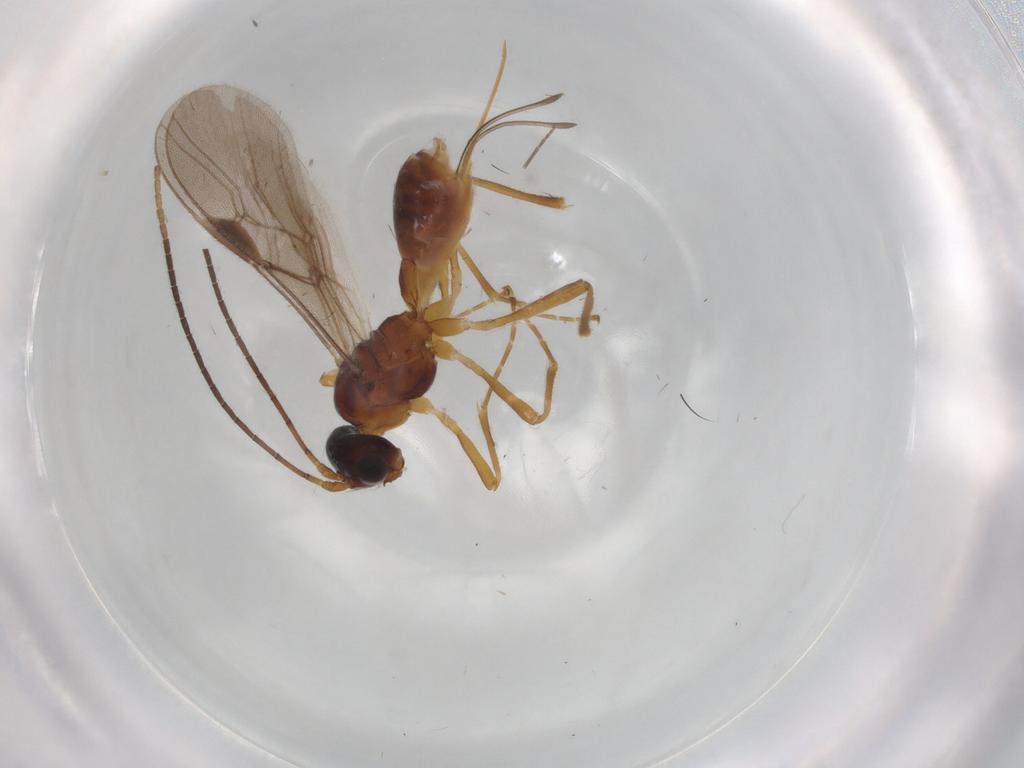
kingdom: Animalia
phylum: Arthropoda
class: Insecta
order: Hymenoptera
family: Braconidae
